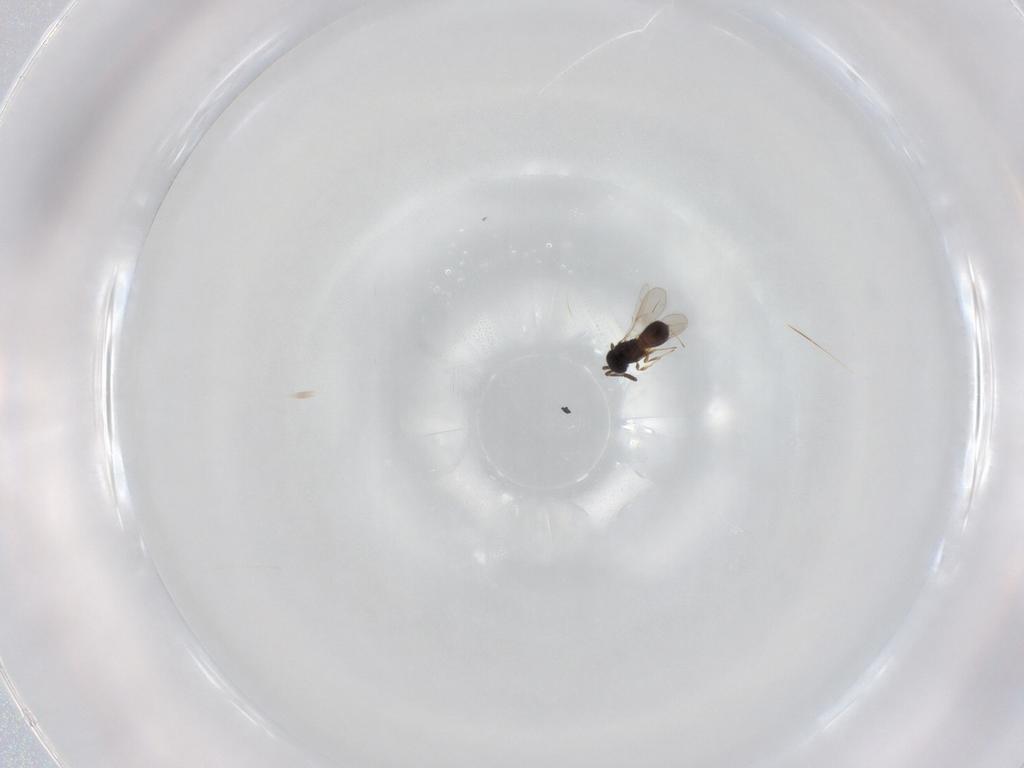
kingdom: Animalia
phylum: Arthropoda
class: Insecta
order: Hymenoptera
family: Scelionidae
